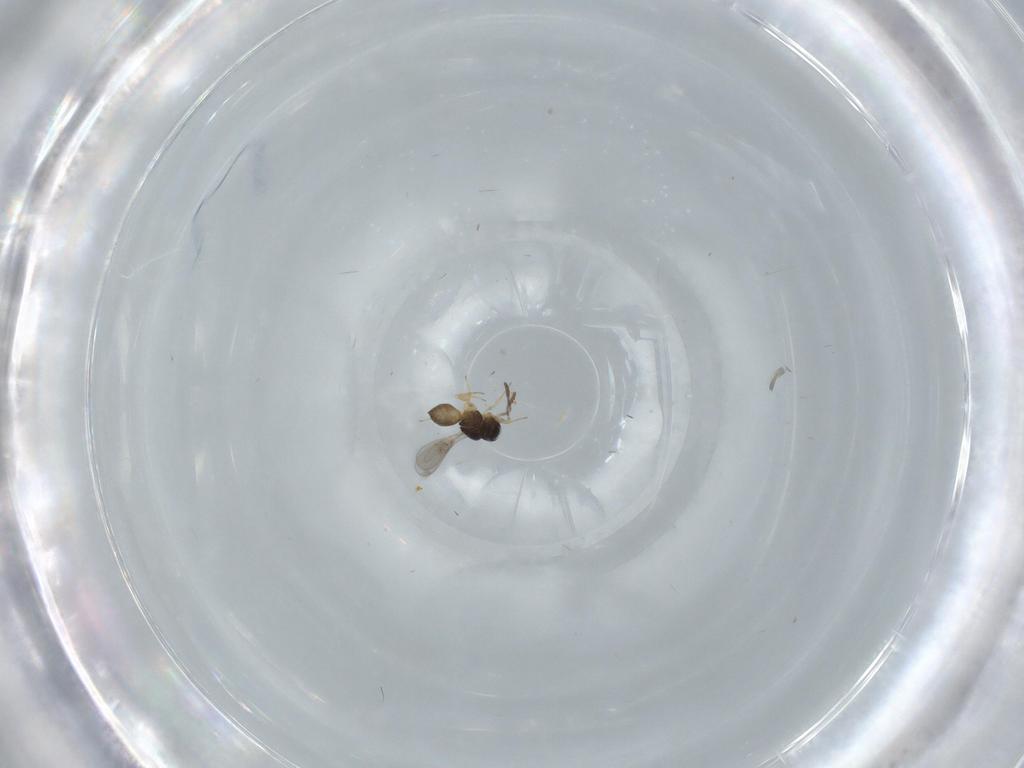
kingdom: Animalia
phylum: Arthropoda
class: Insecta
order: Hymenoptera
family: Scelionidae
